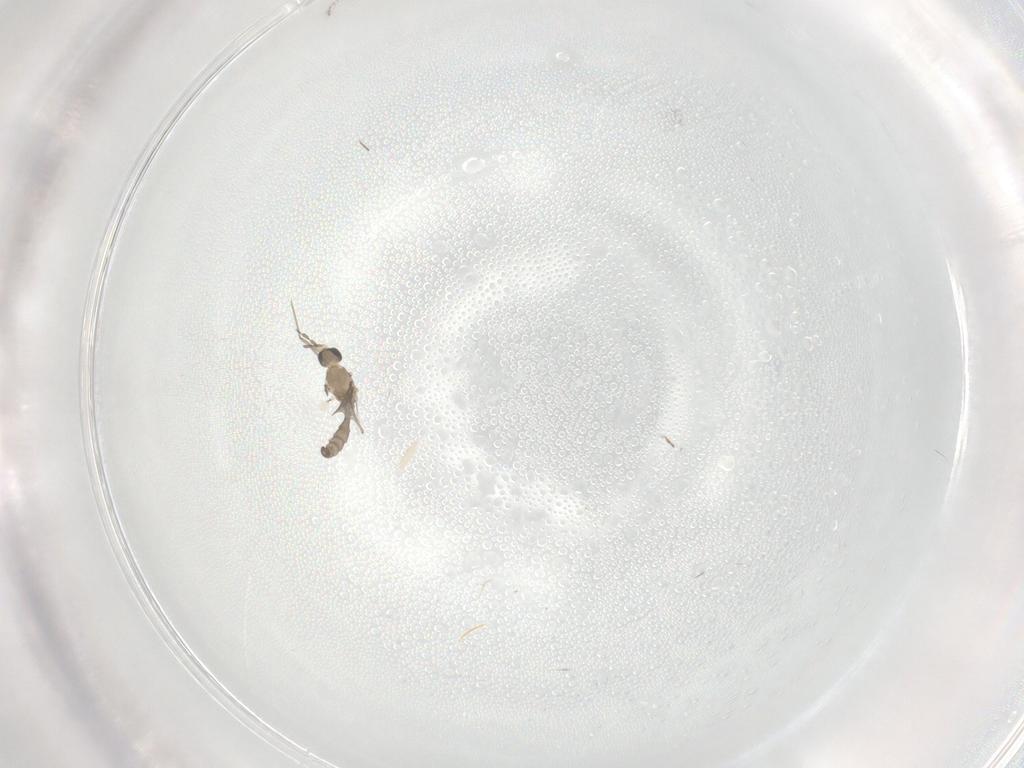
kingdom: Animalia
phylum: Arthropoda
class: Insecta
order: Diptera
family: Cecidomyiidae
